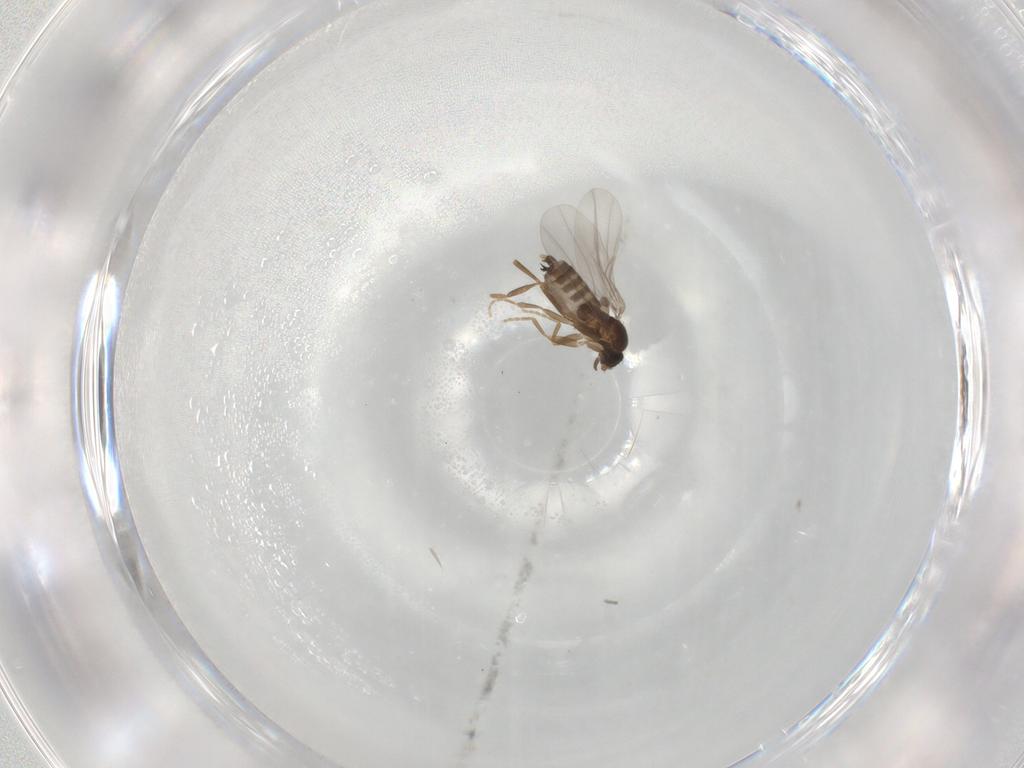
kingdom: Animalia
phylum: Arthropoda
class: Insecta
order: Diptera
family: Phoridae
